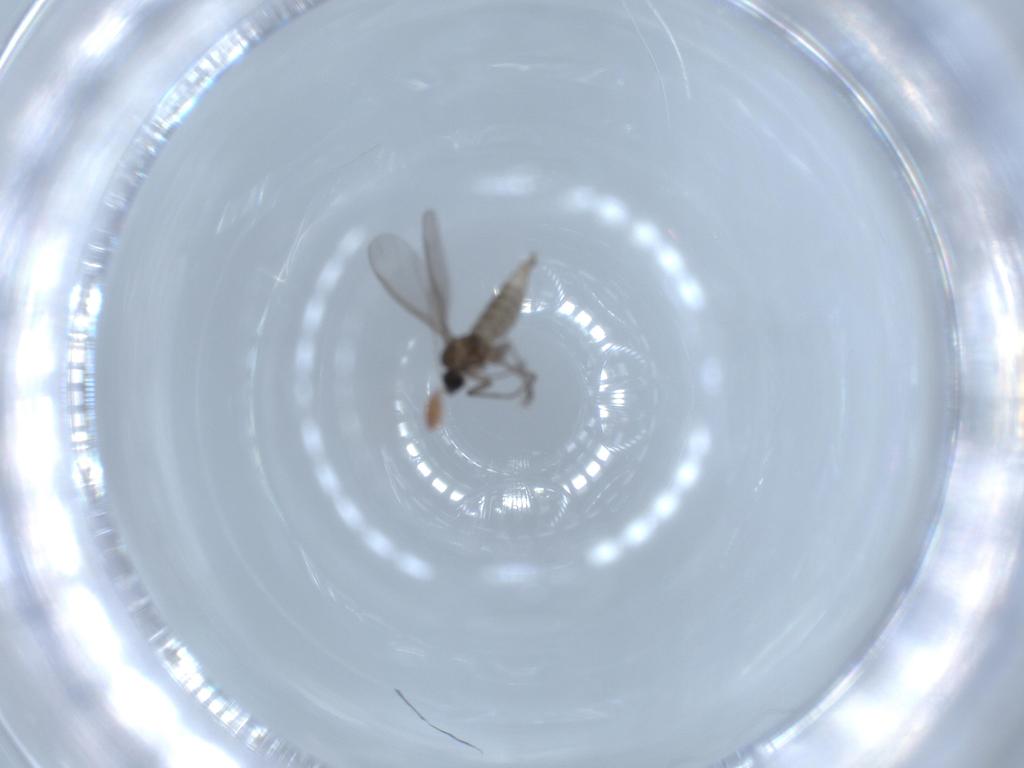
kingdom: Animalia
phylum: Arthropoda
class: Insecta
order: Diptera
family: Sciaridae
